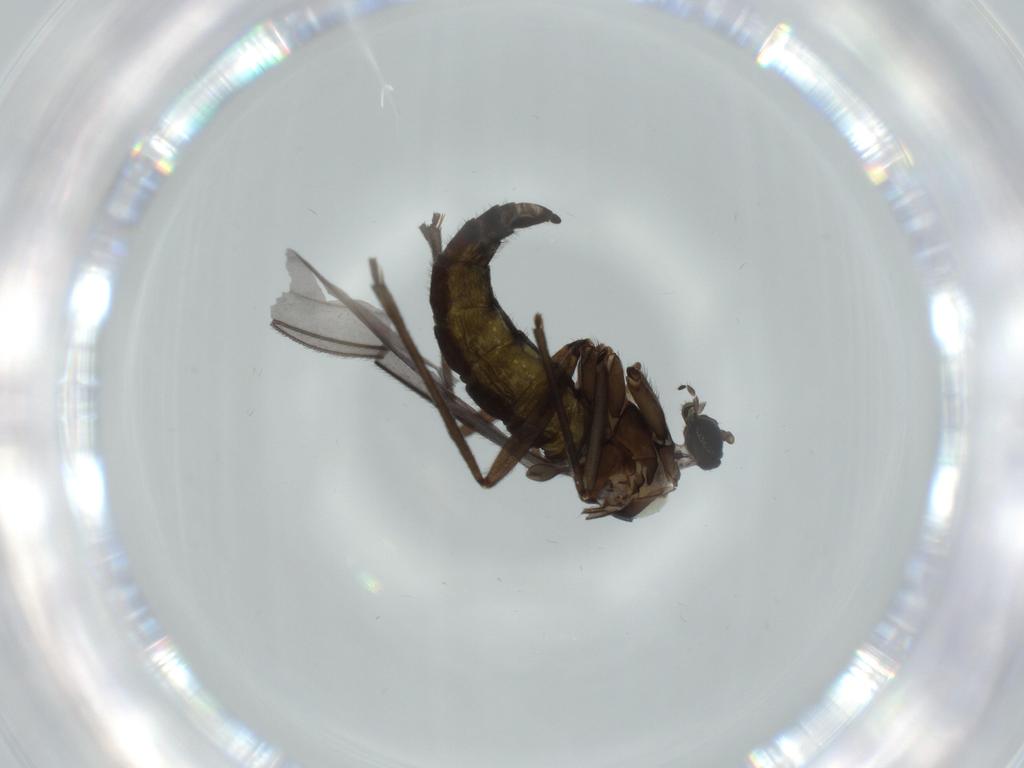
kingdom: Animalia
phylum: Arthropoda
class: Insecta
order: Diptera
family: Sciaridae
